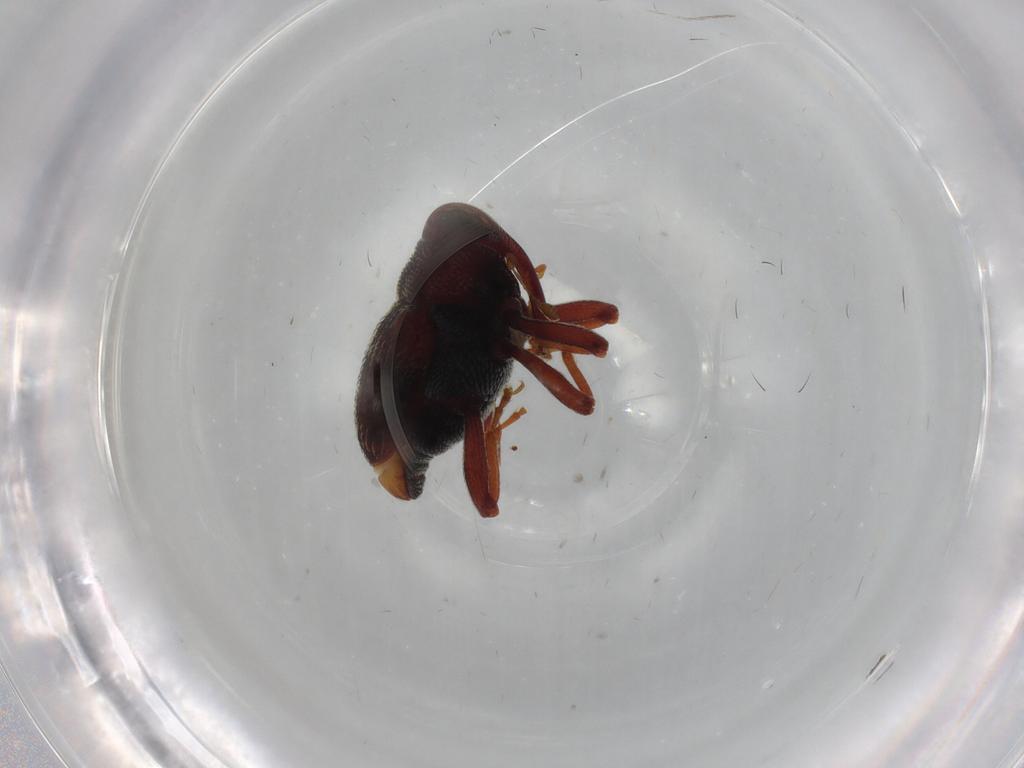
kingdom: Animalia
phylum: Arthropoda
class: Insecta
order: Coleoptera
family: Curculionidae
